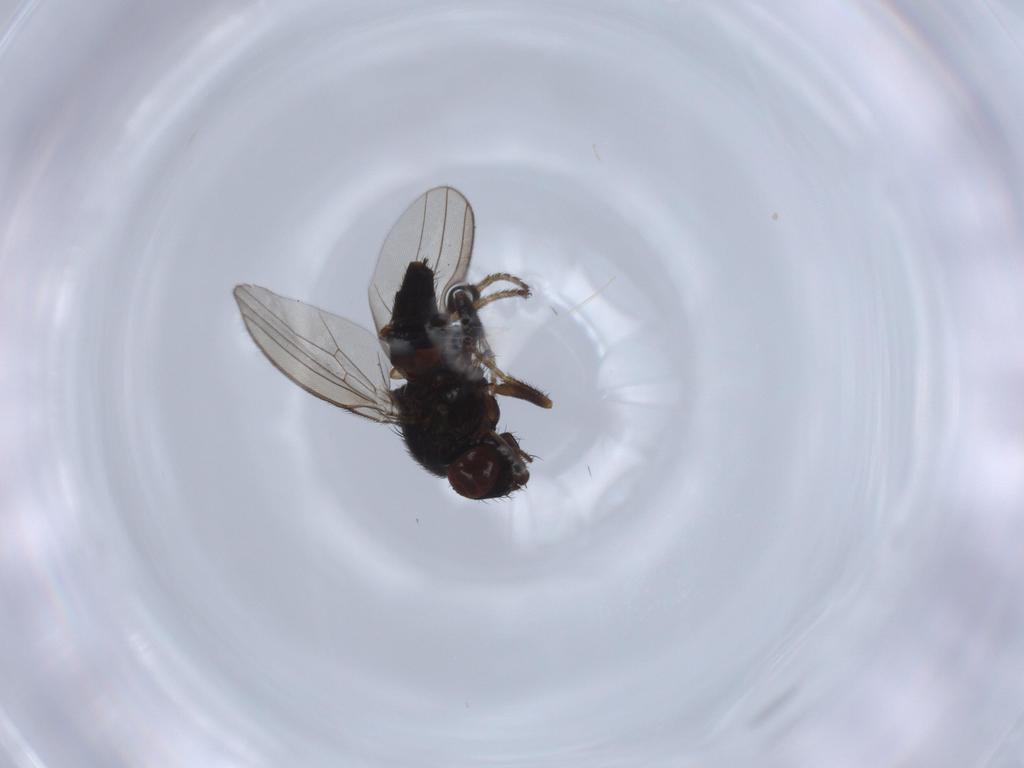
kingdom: Animalia
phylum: Arthropoda
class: Insecta
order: Diptera
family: Milichiidae
